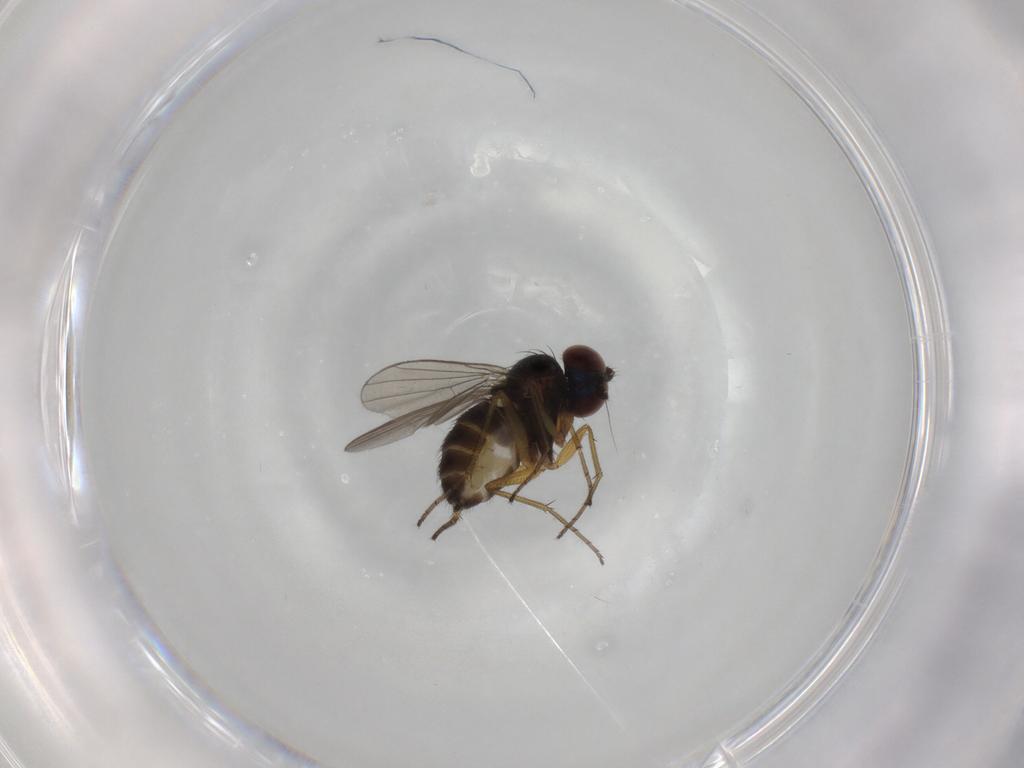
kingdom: Animalia
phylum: Arthropoda
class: Insecta
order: Diptera
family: Dolichopodidae
